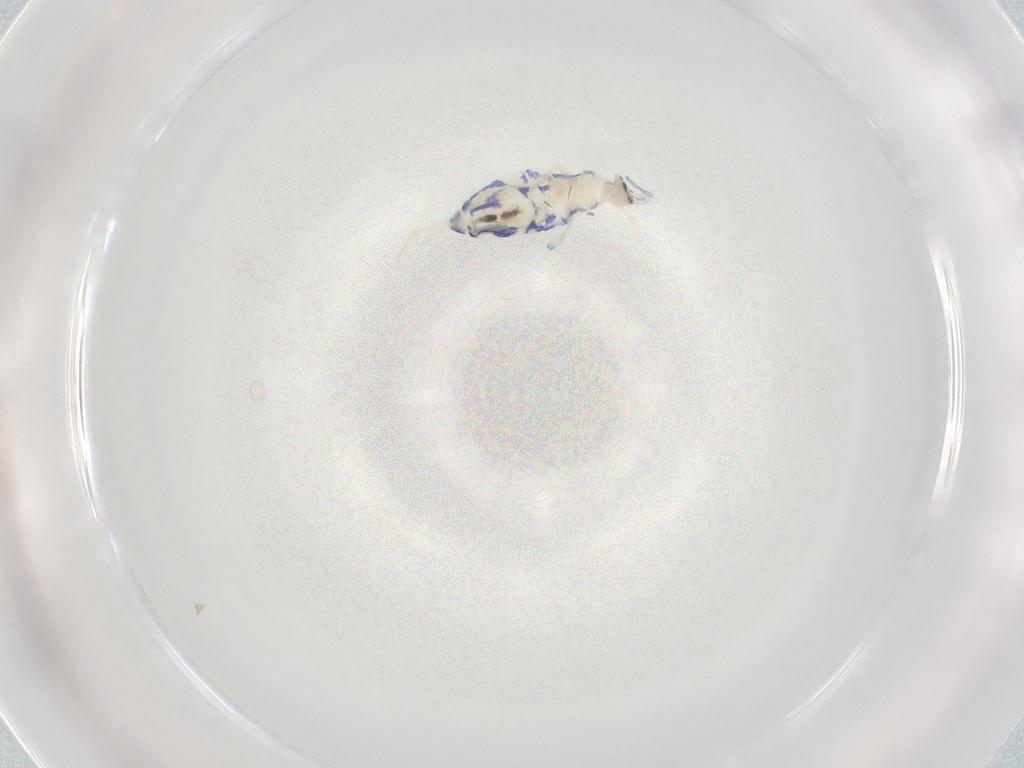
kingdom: Animalia
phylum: Arthropoda
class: Collembola
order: Entomobryomorpha
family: Entomobryidae
